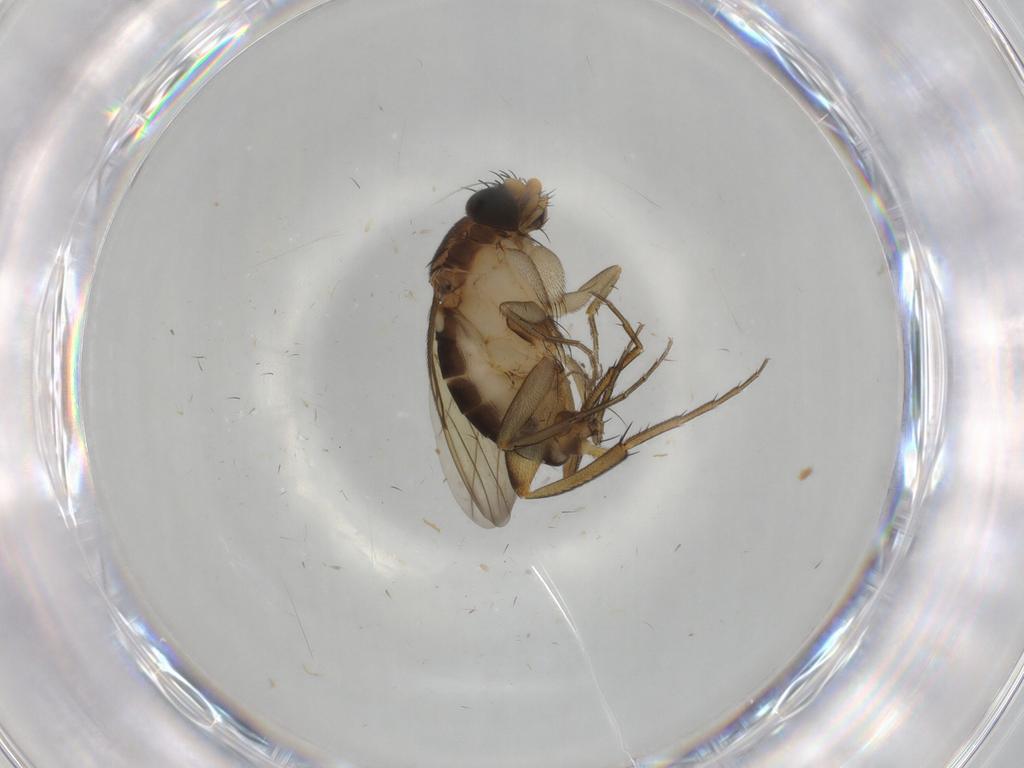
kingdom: Animalia
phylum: Arthropoda
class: Insecta
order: Diptera
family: Phoridae
